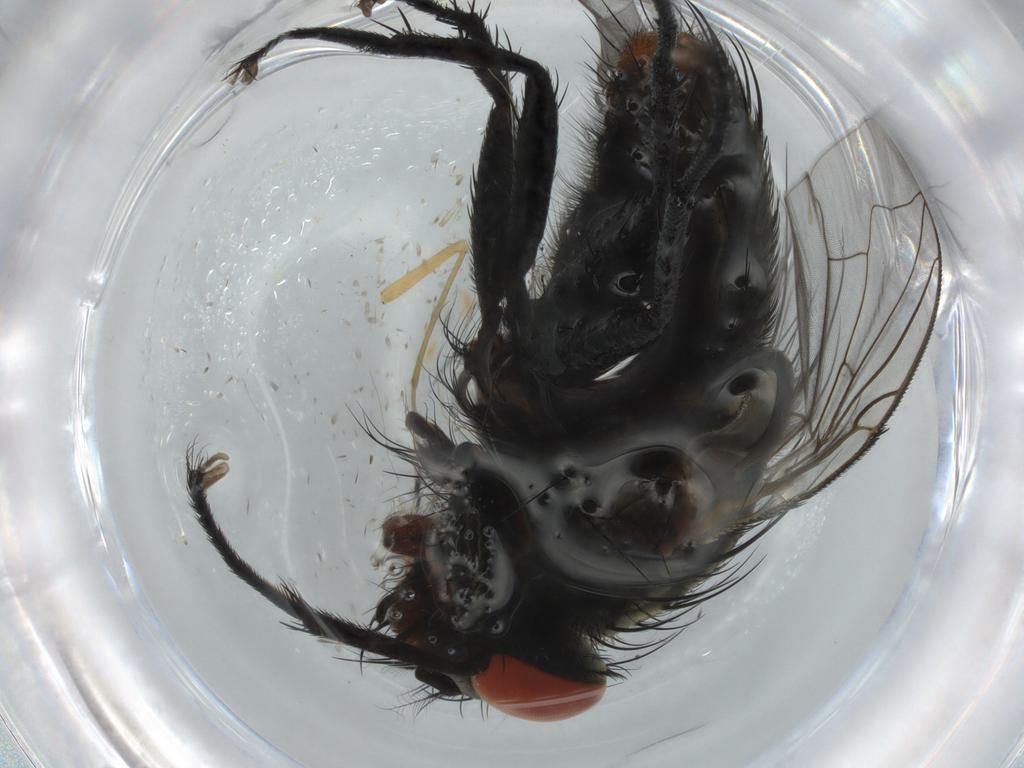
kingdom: Animalia
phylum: Arthropoda
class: Insecta
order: Diptera
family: Sarcophagidae
